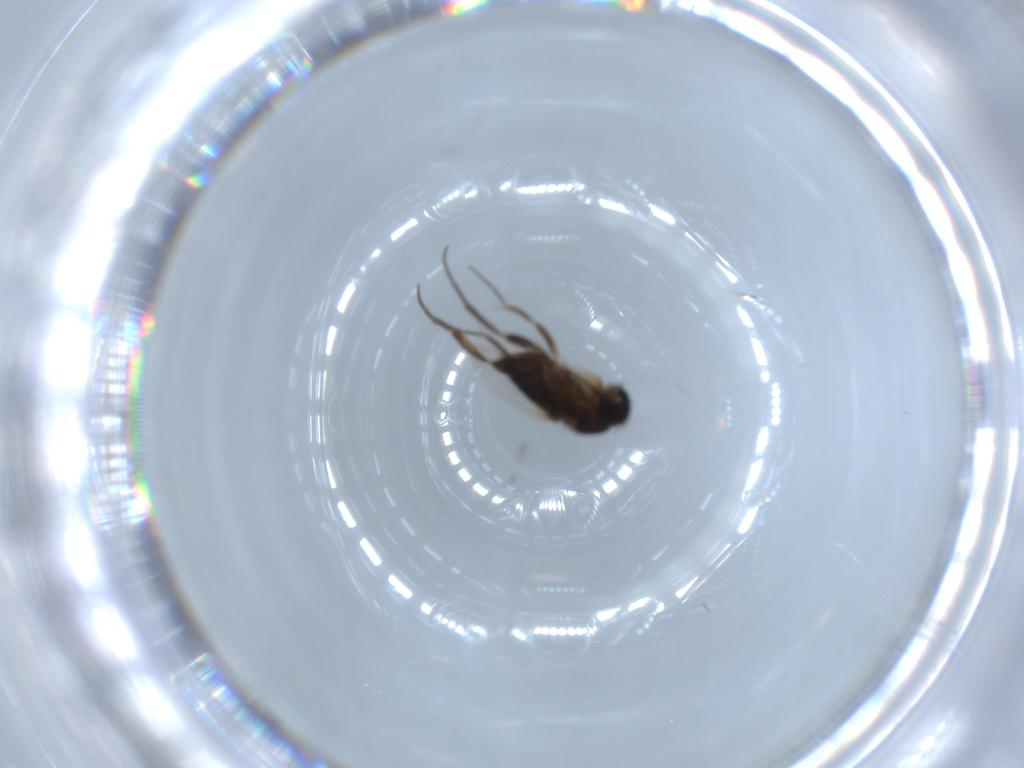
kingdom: Animalia
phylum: Arthropoda
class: Insecta
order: Diptera
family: Phoridae
